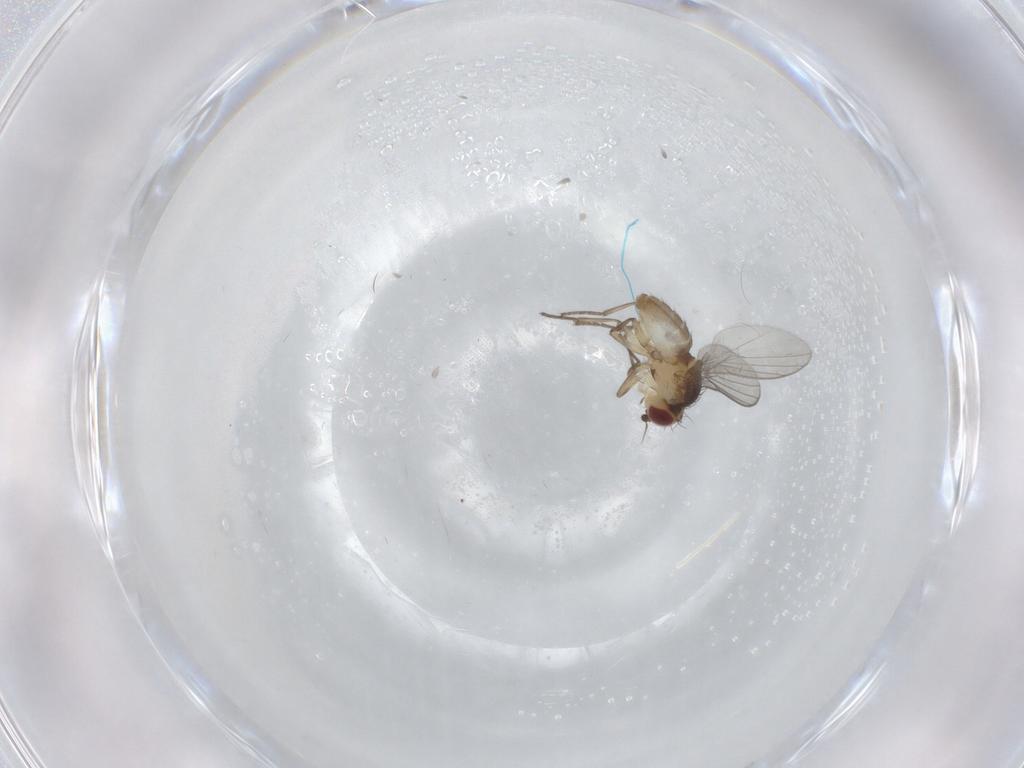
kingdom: Animalia
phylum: Arthropoda
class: Insecta
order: Diptera
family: Agromyzidae
